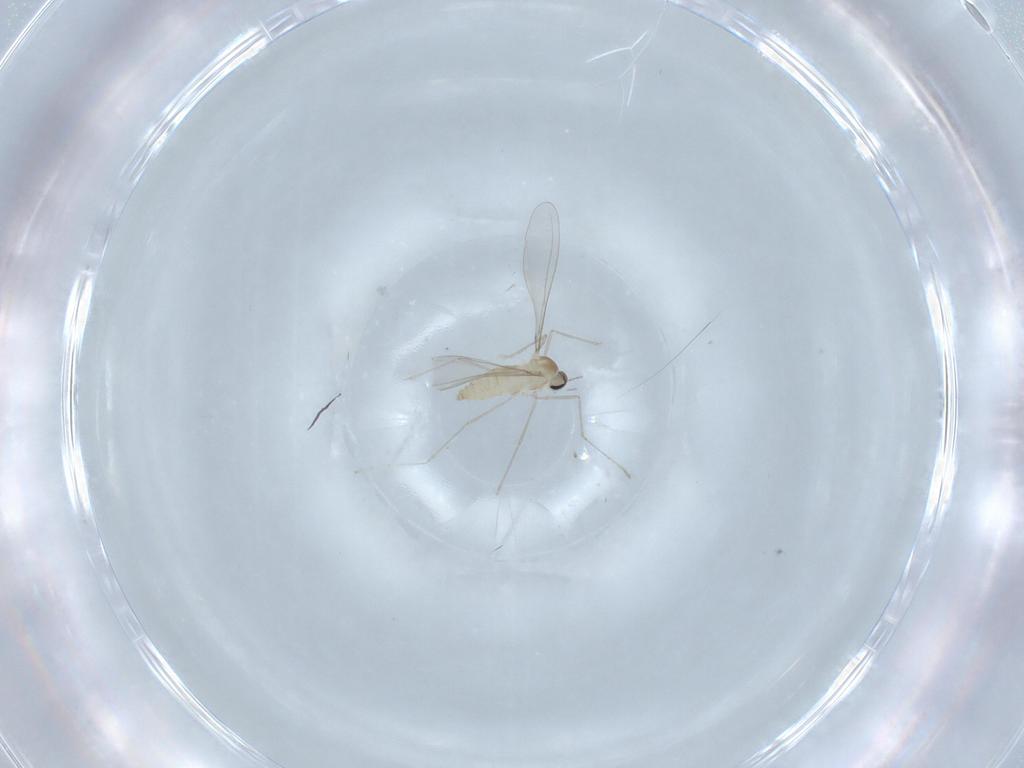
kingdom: Animalia
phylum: Arthropoda
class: Insecta
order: Diptera
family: Cecidomyiidae
